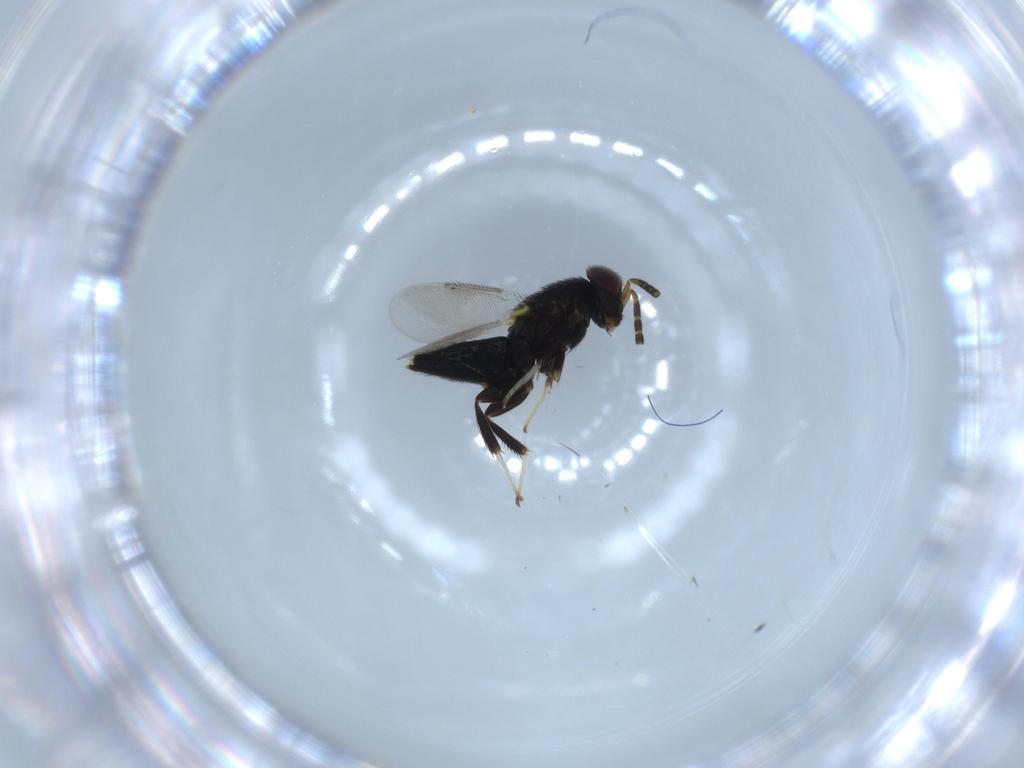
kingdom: Animalia
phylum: Arthropoda
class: Insecta
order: Hymenoptera
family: Aphelinidae
